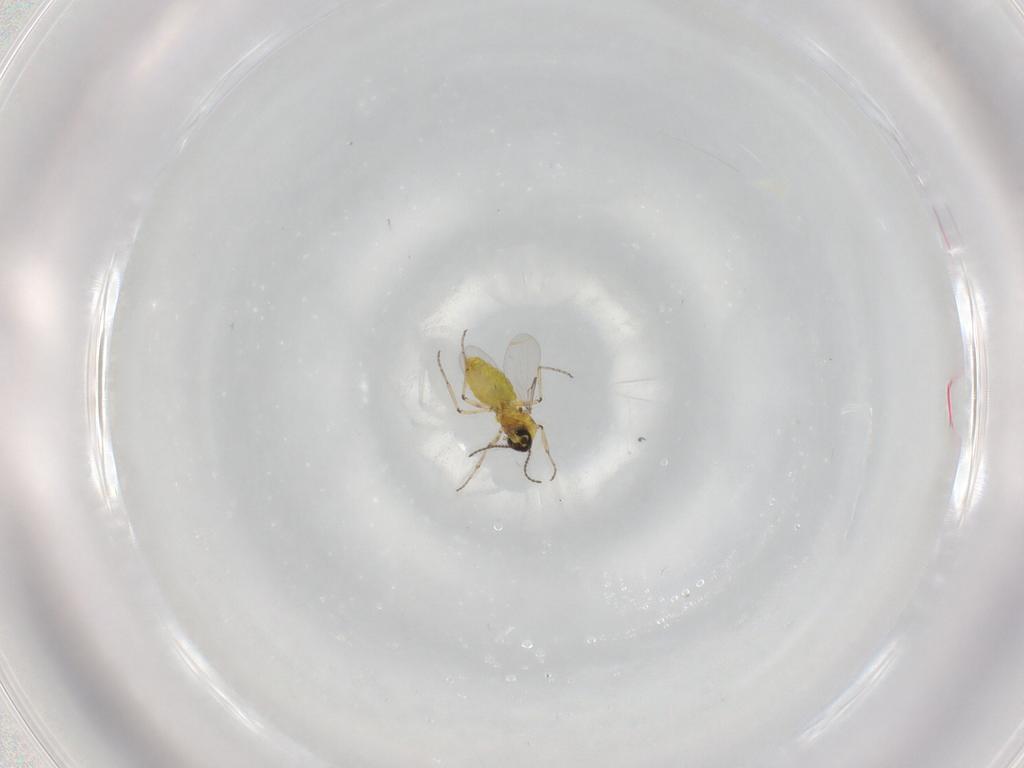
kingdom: Animalia
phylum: Arthropoda
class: Insecta
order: Diptera
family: Ceratopogonidae
